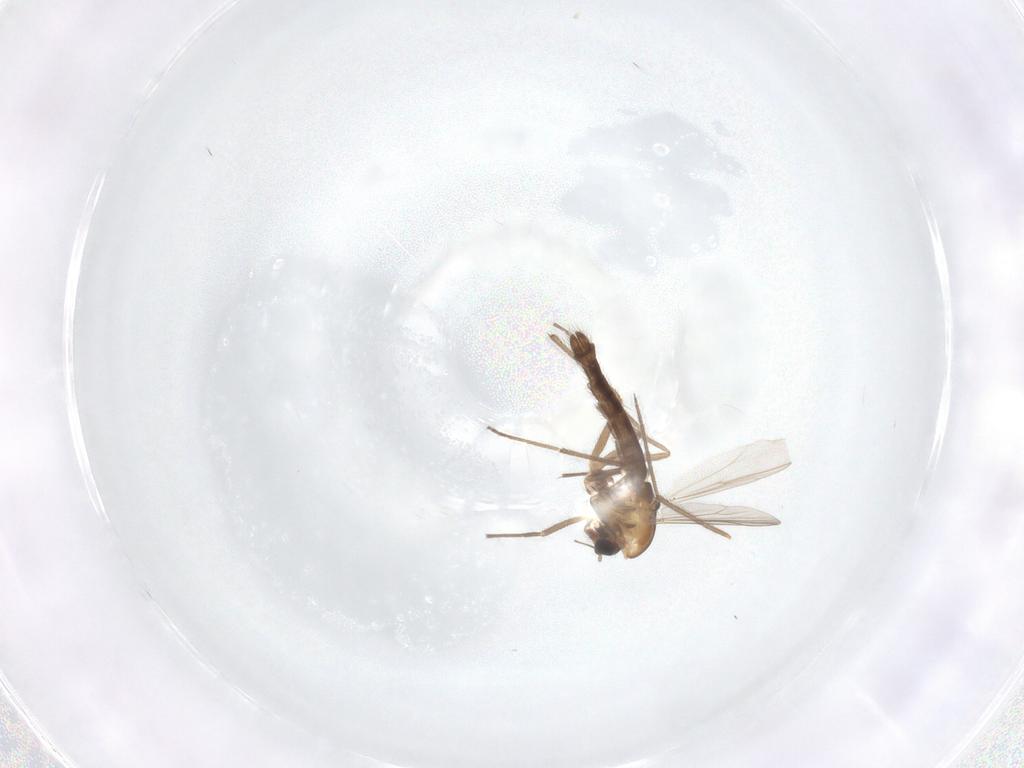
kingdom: Animalia
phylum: Arthropoda
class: Insecta
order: Diptera
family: Chironomidae
